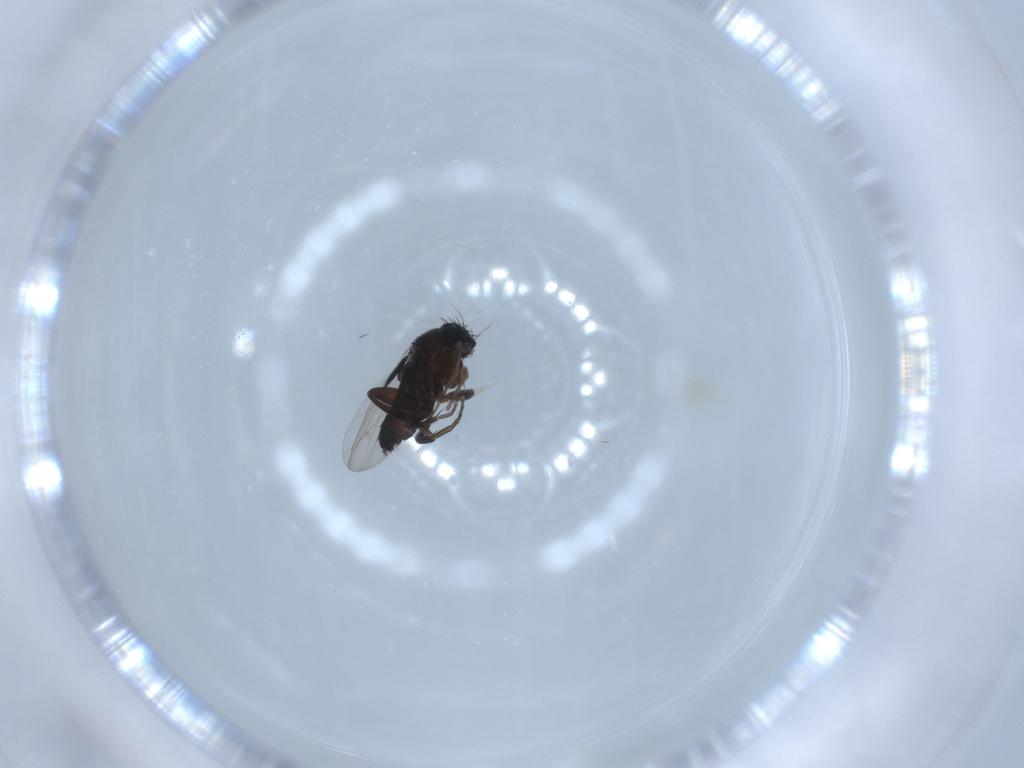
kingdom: Animalia
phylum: Arthropoda
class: Insecta
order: Diptera
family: Phoridae
